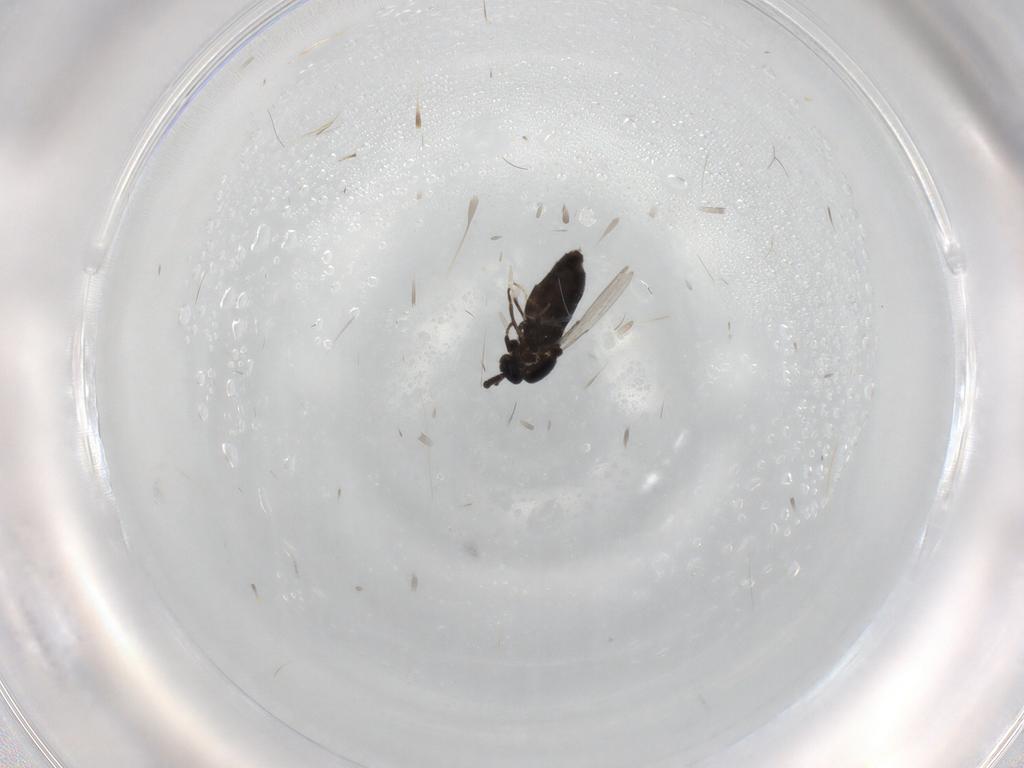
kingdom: Animalia
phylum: Arthropoda
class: Insecta
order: Diptera
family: Scatopsidae
